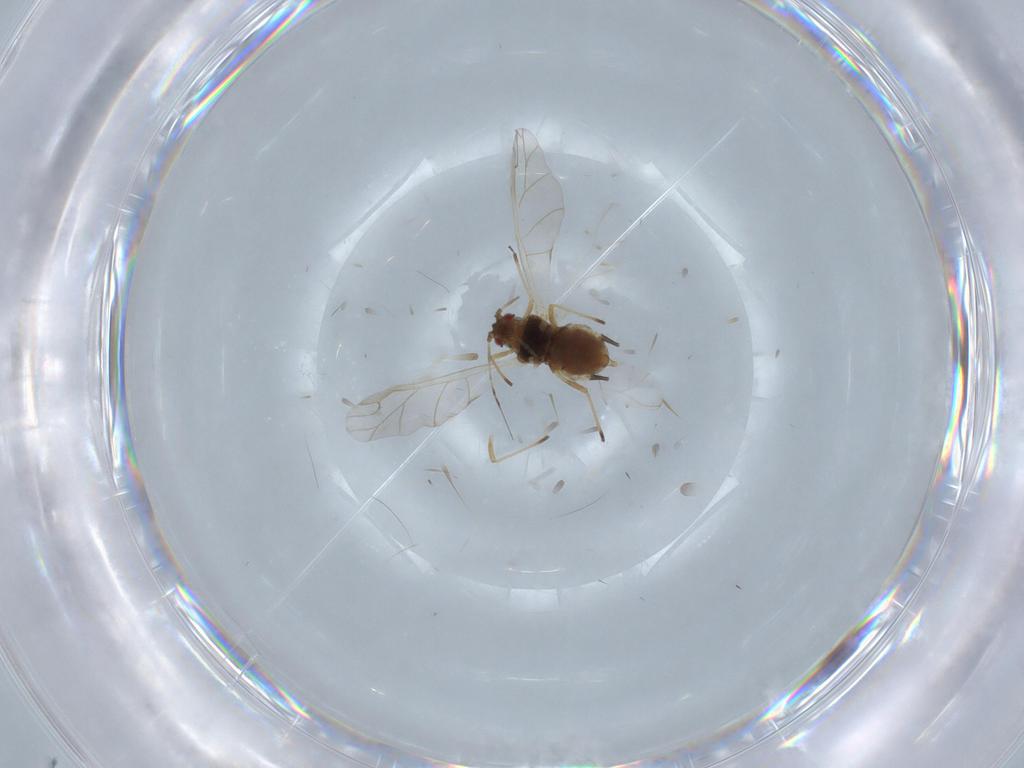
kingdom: Animalia
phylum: Arthropoda
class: Insecta
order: Hemiptera
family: Aphididae
